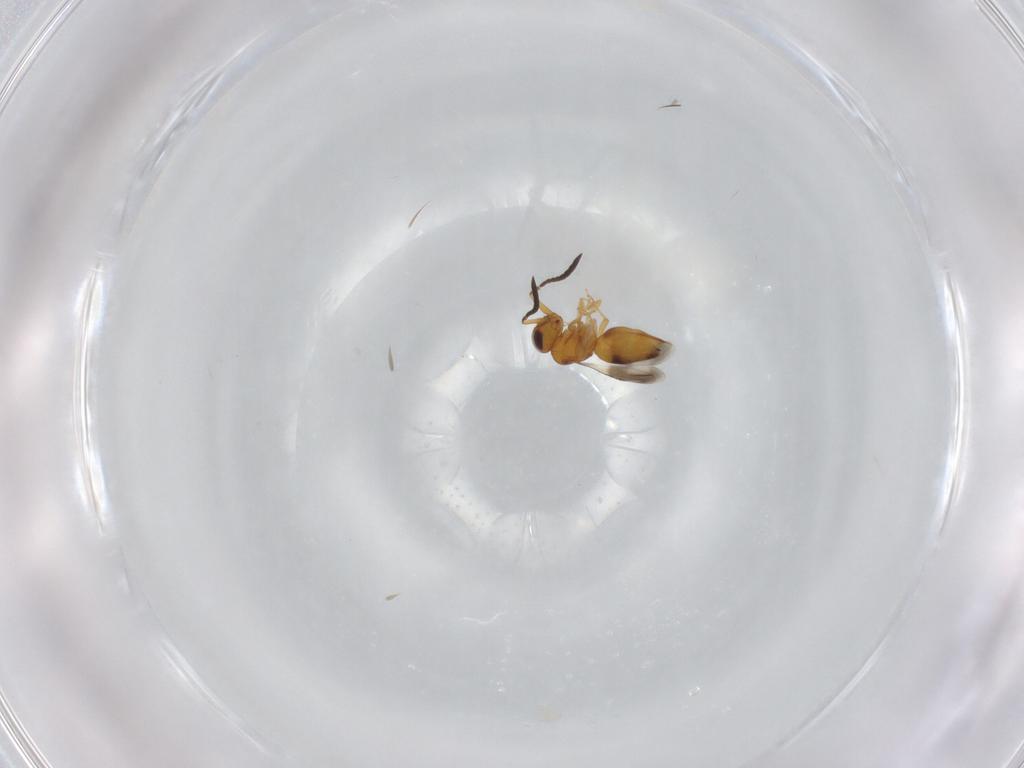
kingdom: Animalia
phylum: Arthropoda
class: Insecta
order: Hymenoptera
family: Ceraphronidae
